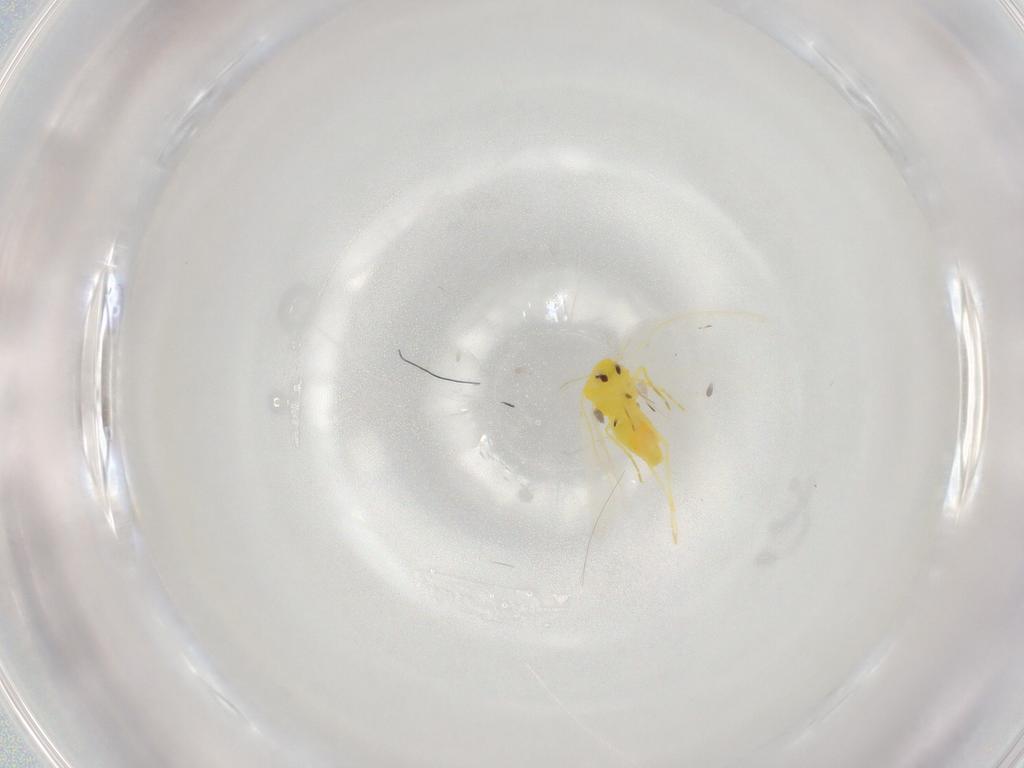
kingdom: Animalia
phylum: Arthropoda
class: Insecta
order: Hemiptera
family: Aleyrodidae
